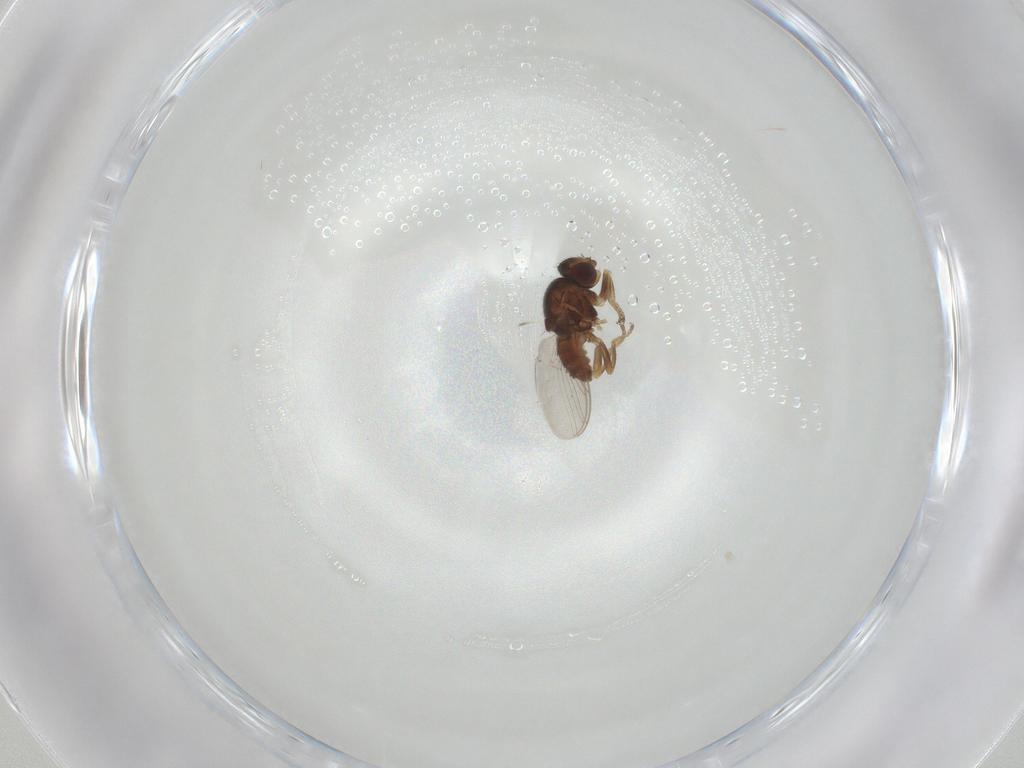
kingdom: Animalia
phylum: Arthropoda
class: Insecta
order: Diptera
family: Chloropidae
